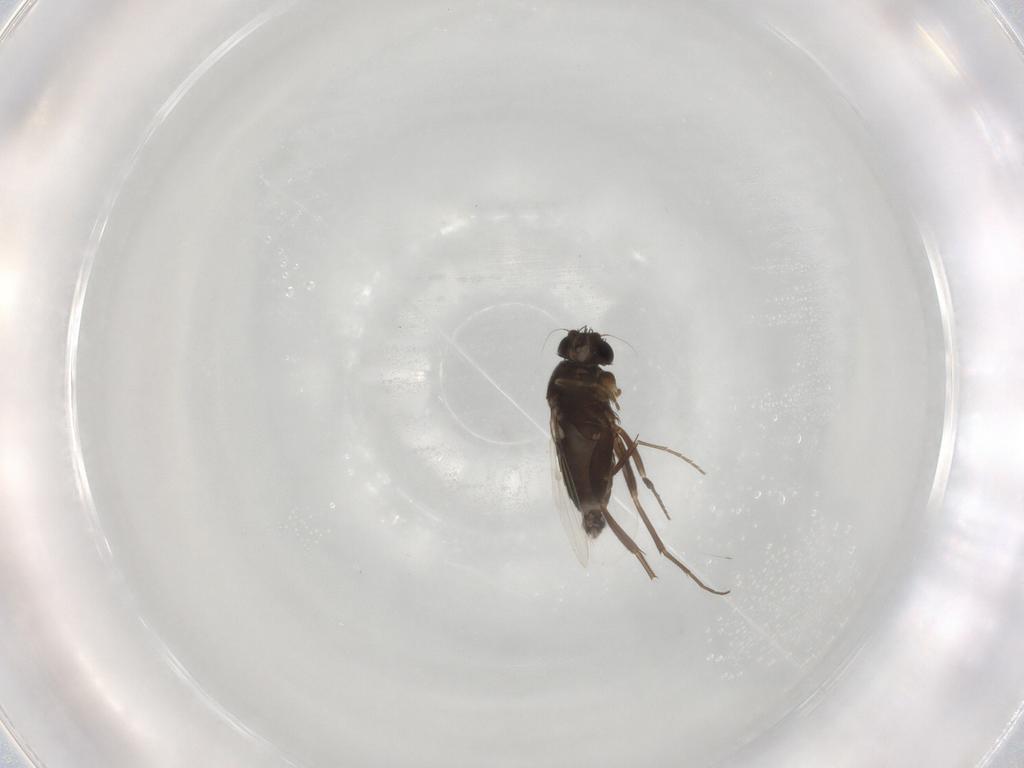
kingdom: Animalia
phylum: Arthropoda
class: Insecta
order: Diptera
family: Phoridae
